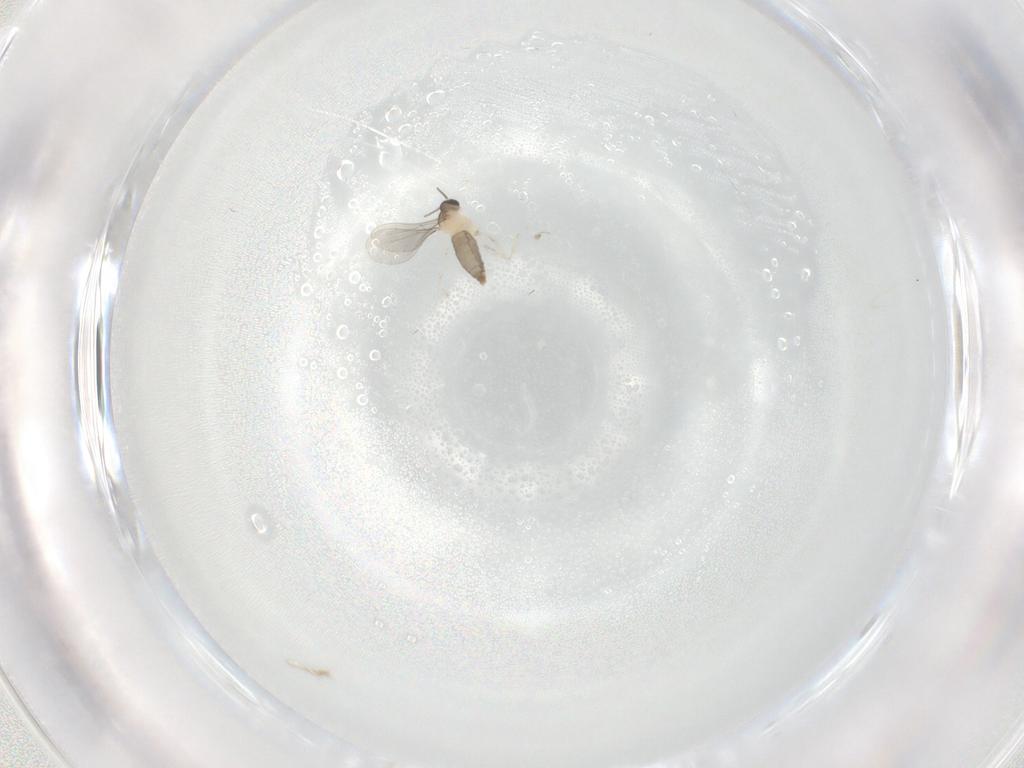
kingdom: Animalia
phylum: Arthropoda
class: Insecta
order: Diptera
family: Cecidomyiidae
